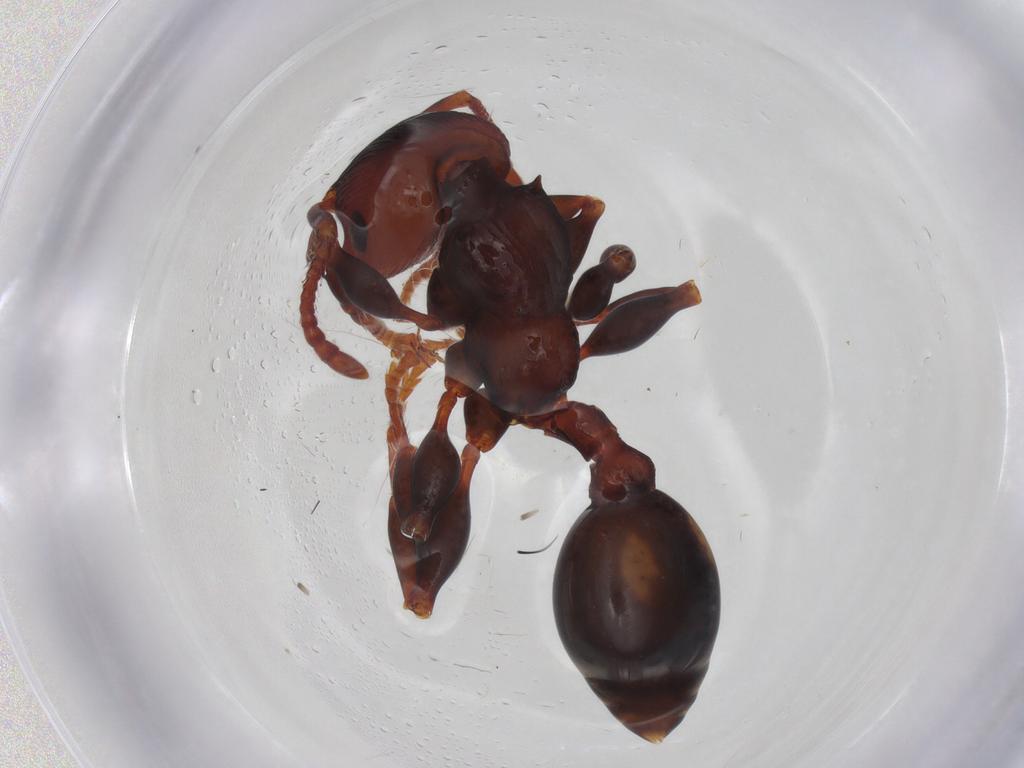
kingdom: Animalia
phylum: Arthropoda
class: Insecta
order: Hymenoptera
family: Formicidae
